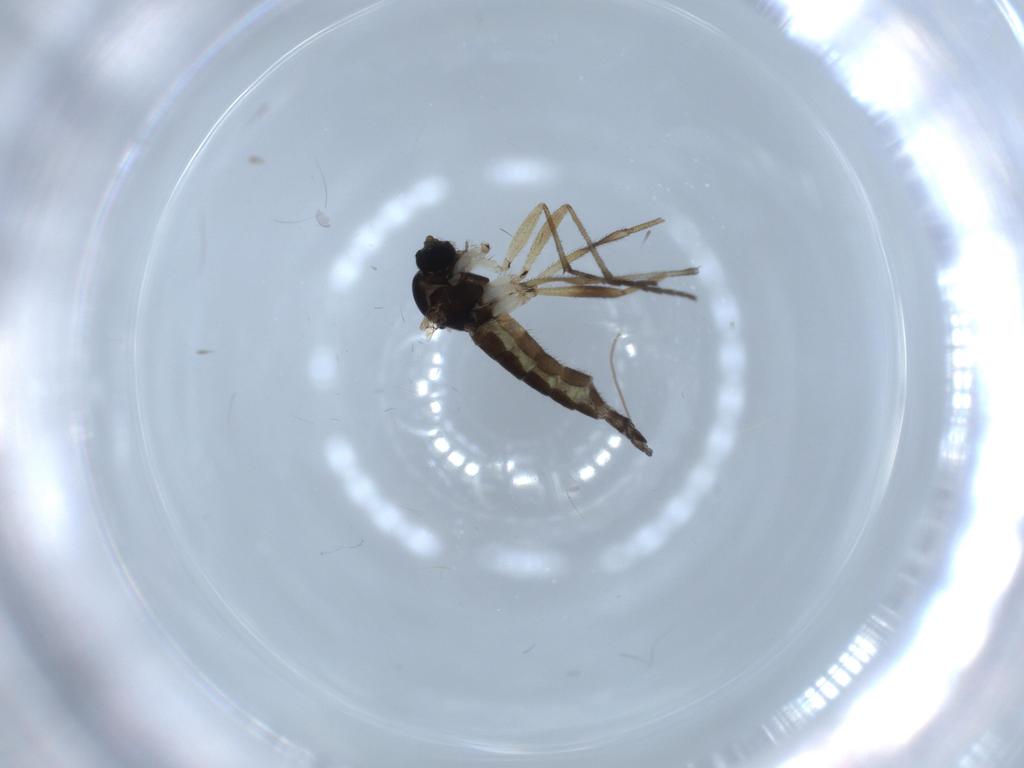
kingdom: Animalia
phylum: Arthropoda
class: Insecta
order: Diptera
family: Sciaridae
